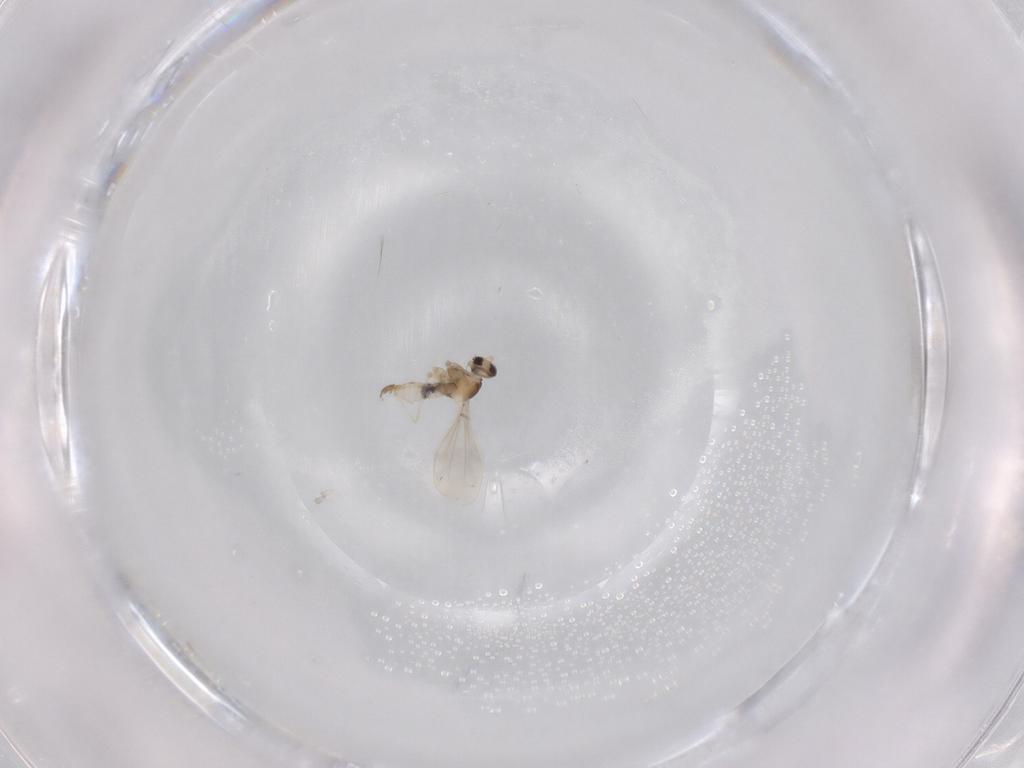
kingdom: Animalia
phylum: Arthropoda
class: Insecta
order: Diptera
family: Cecidomyiidae
